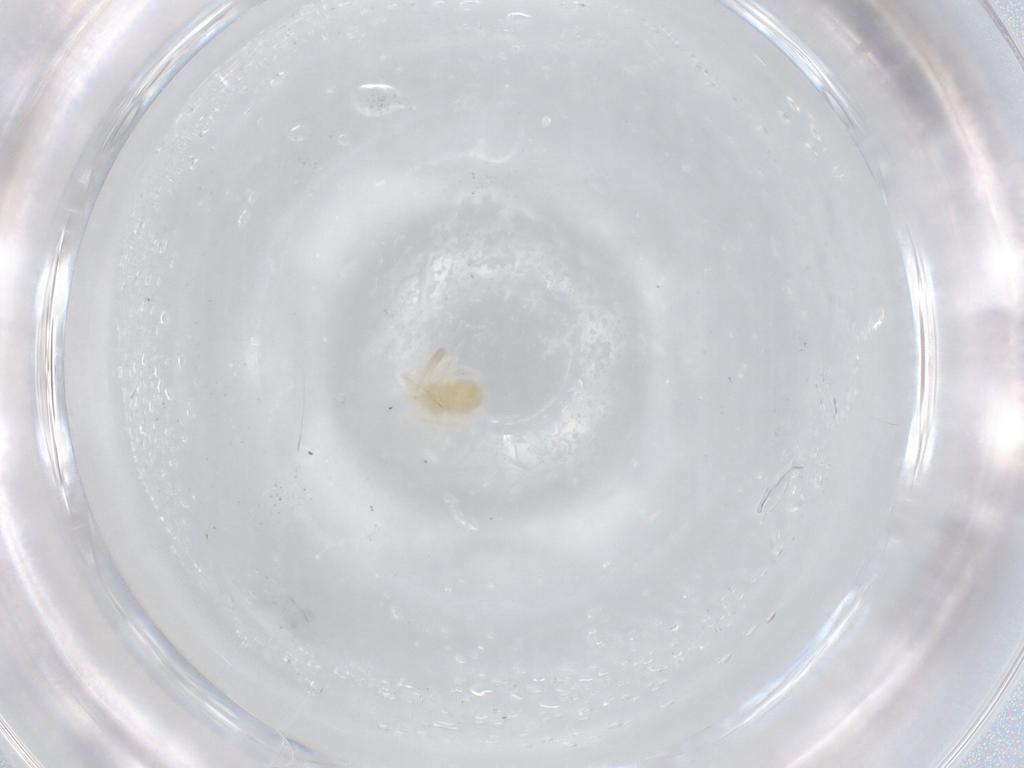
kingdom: Animalia
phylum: Arthropoda
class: Arachnida
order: Trombidiformes
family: Anystidae
